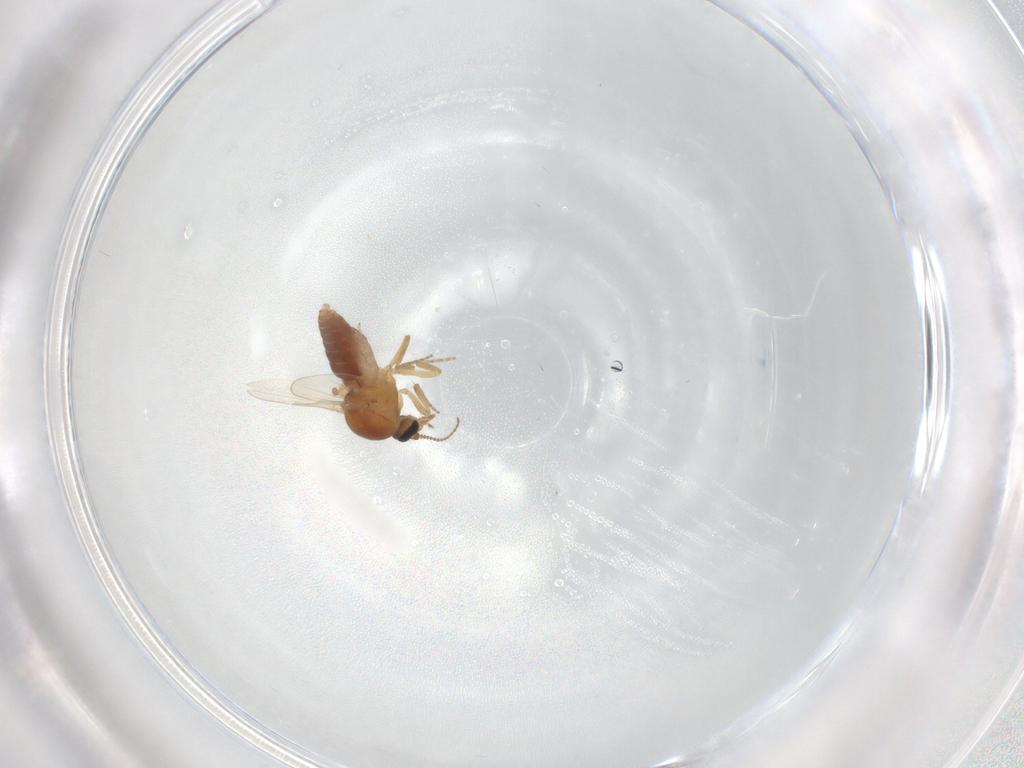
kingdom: Animalia
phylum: Arthropoda
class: Insecta
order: Diptera
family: Ceratopogonidae
